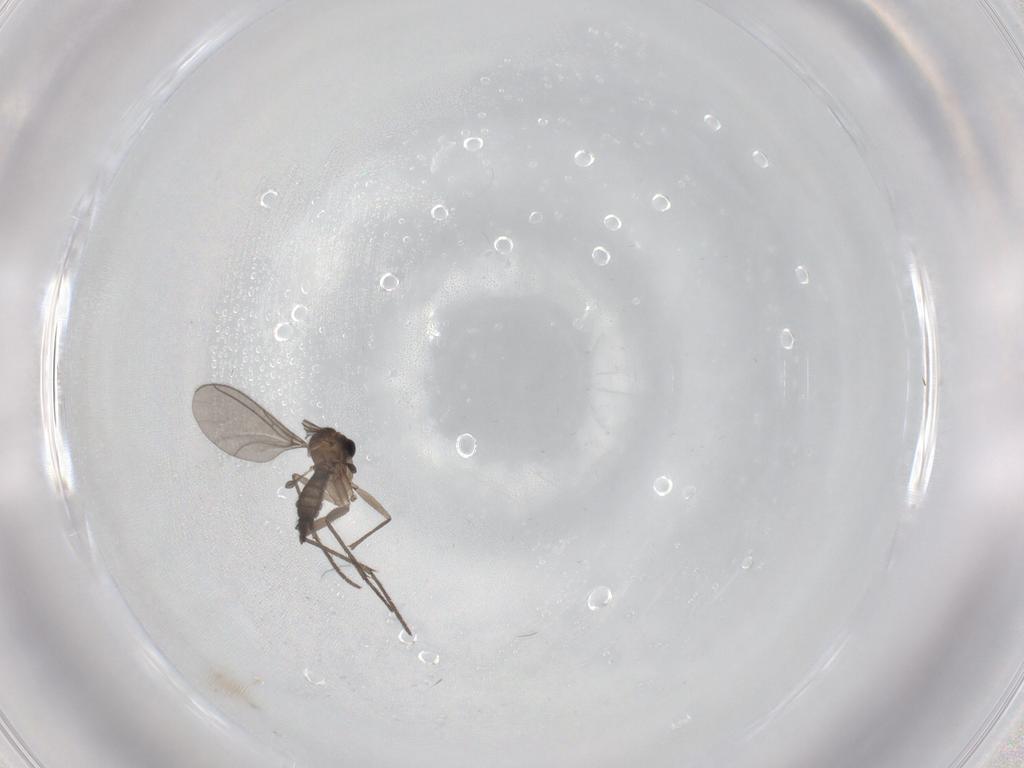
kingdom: Animalia
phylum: Arthropoda
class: Insecta
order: Diptera
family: Sciaridae
